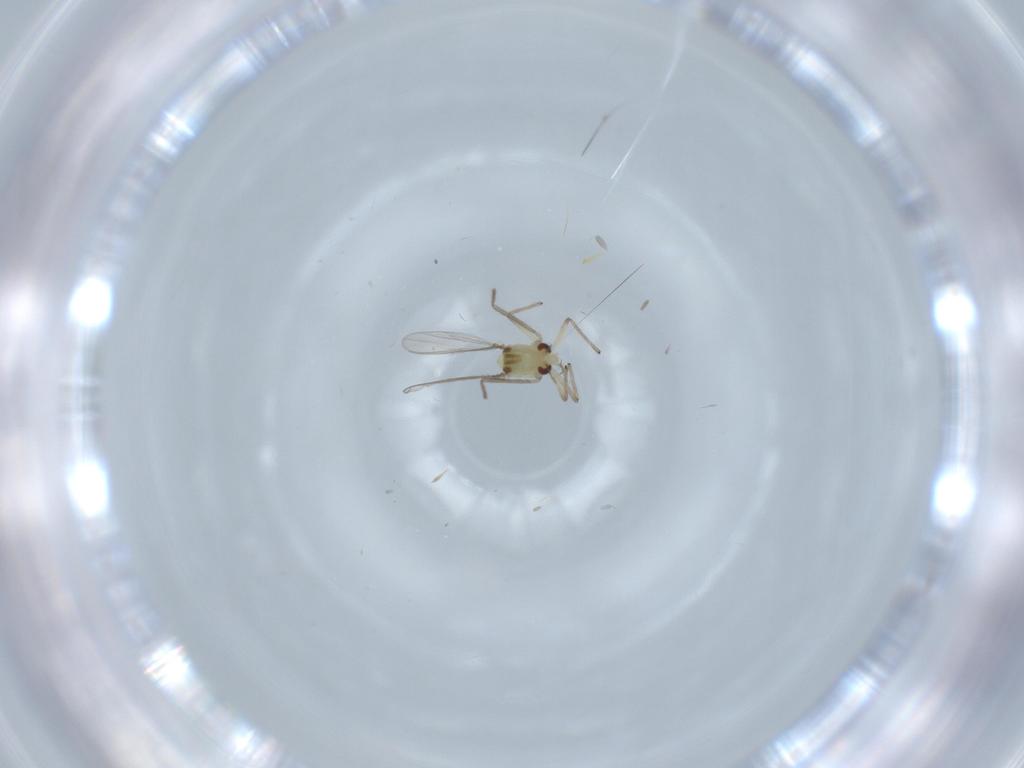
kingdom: Animalia
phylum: Arthropoda
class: Insecta
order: Diptera
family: Chironomidae
